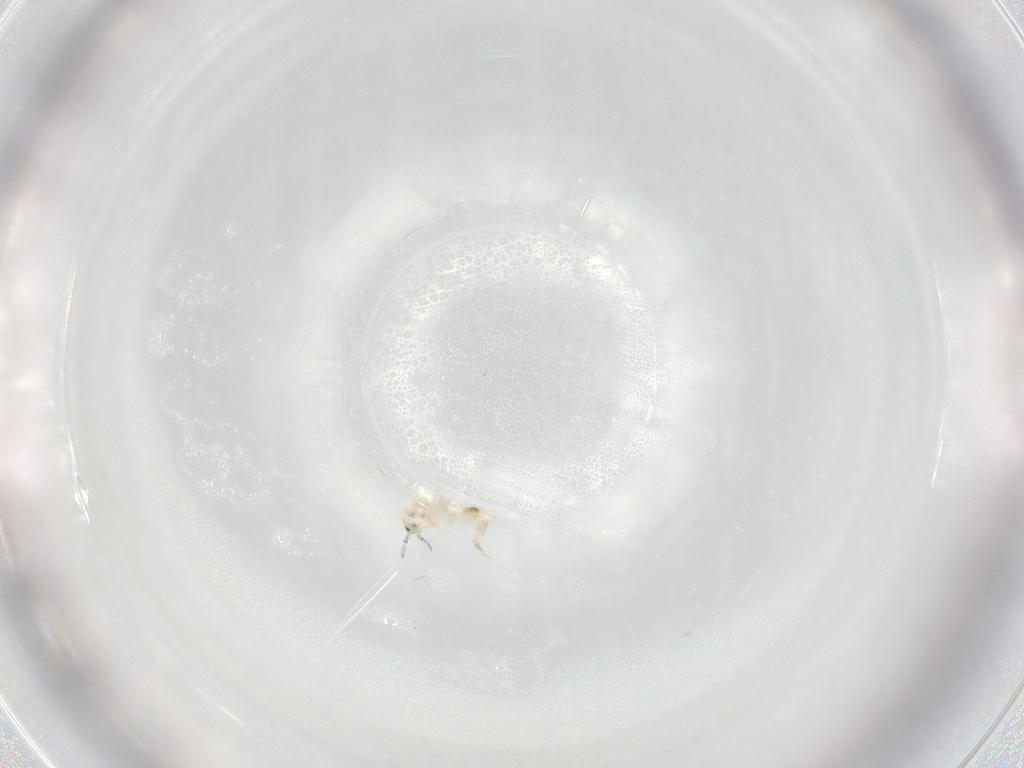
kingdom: Animalia
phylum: Arthropoda
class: Collembola
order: Entomobryomorpha
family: Entomobryidae
